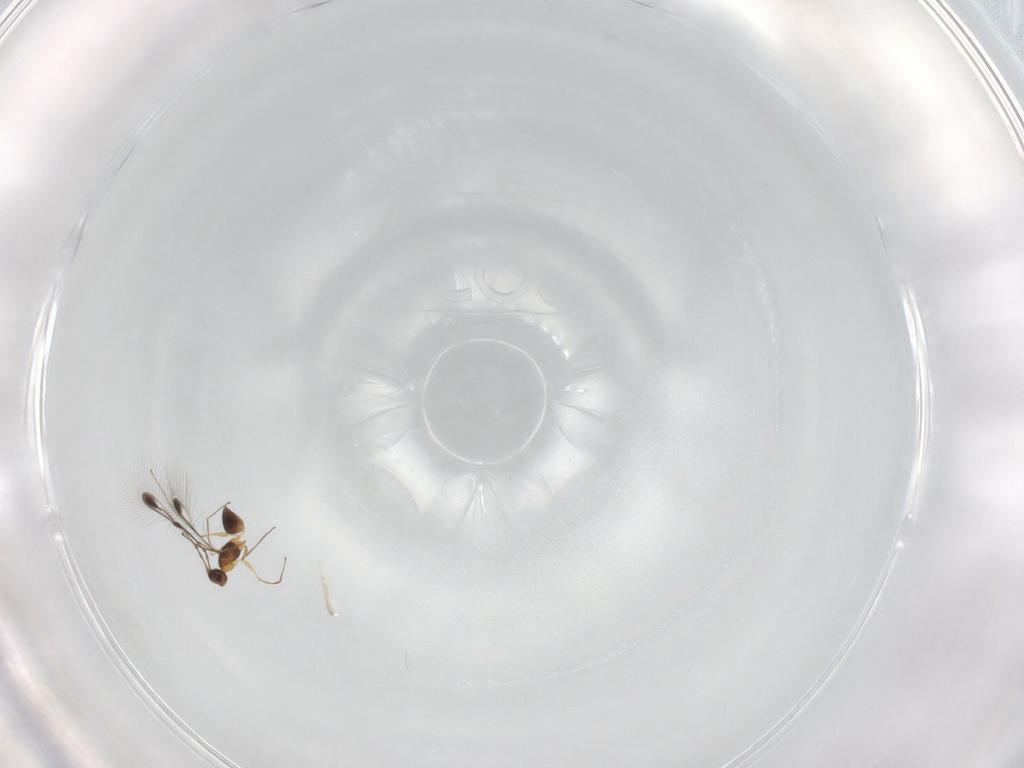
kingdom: Animalia
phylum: Arthropoda
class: Insecta
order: Hymenoptera
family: Mymaridae
